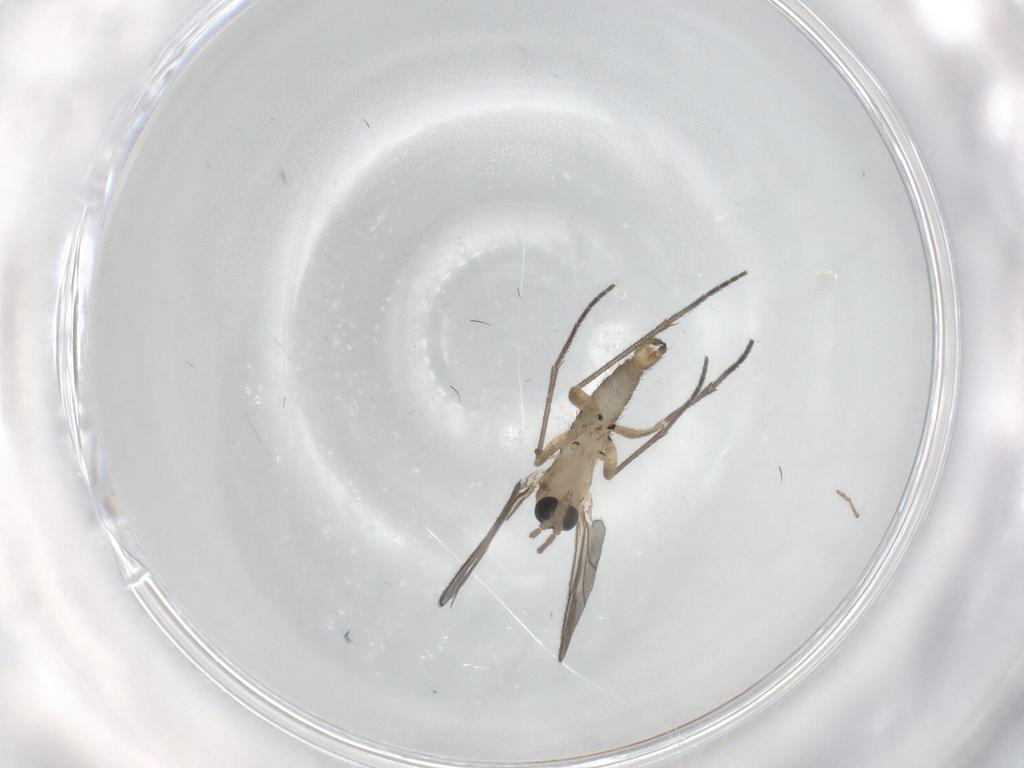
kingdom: Animalia
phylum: Arthropoda
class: Insecta
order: Diptera
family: Sciaridae
